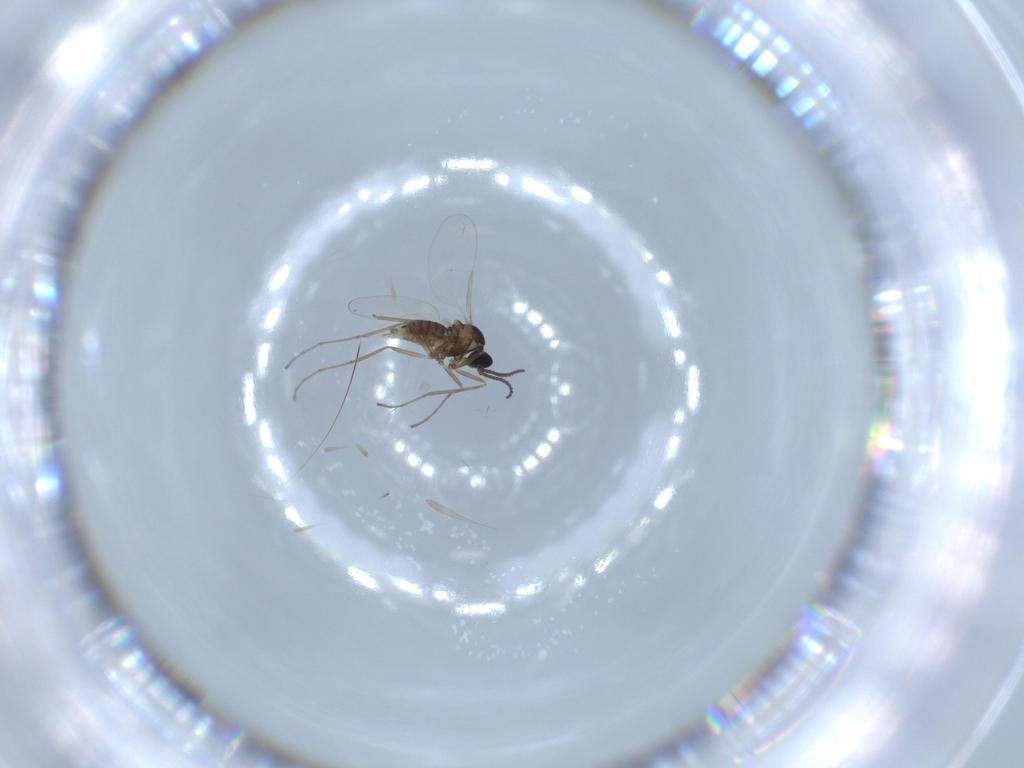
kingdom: Animalia
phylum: Arthropoda
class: Insecta
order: Diptera
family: Cecidomyiidae
